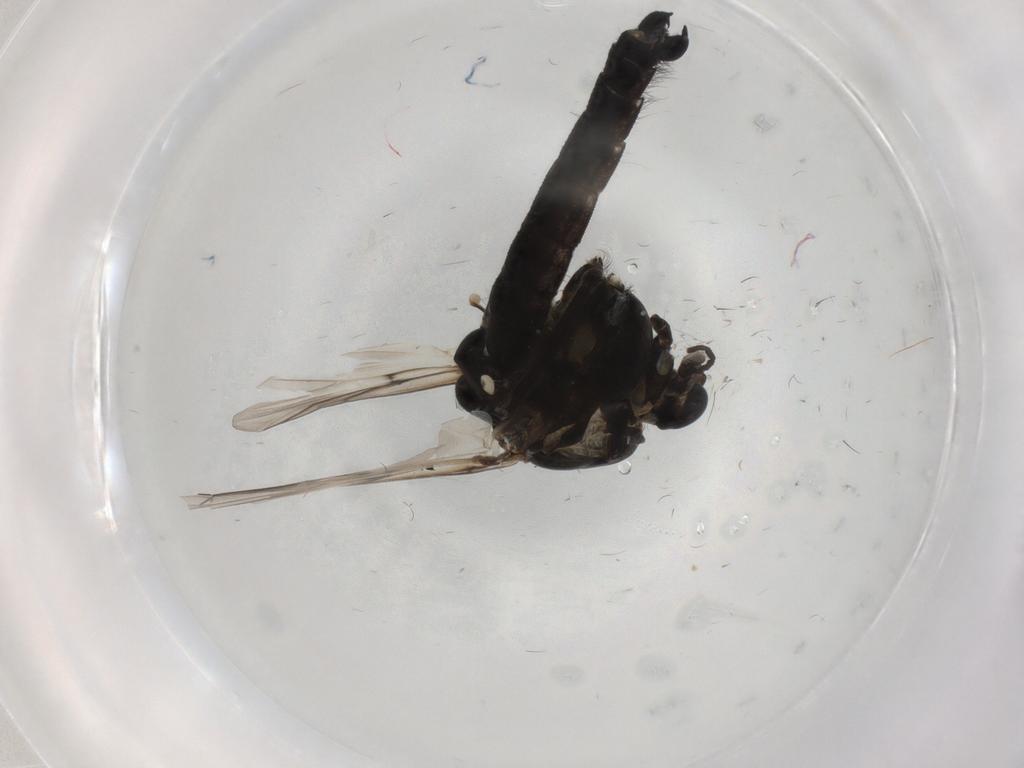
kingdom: Animalia
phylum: Arthropoda
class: Insecta
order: Diptera
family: Chironomidae
